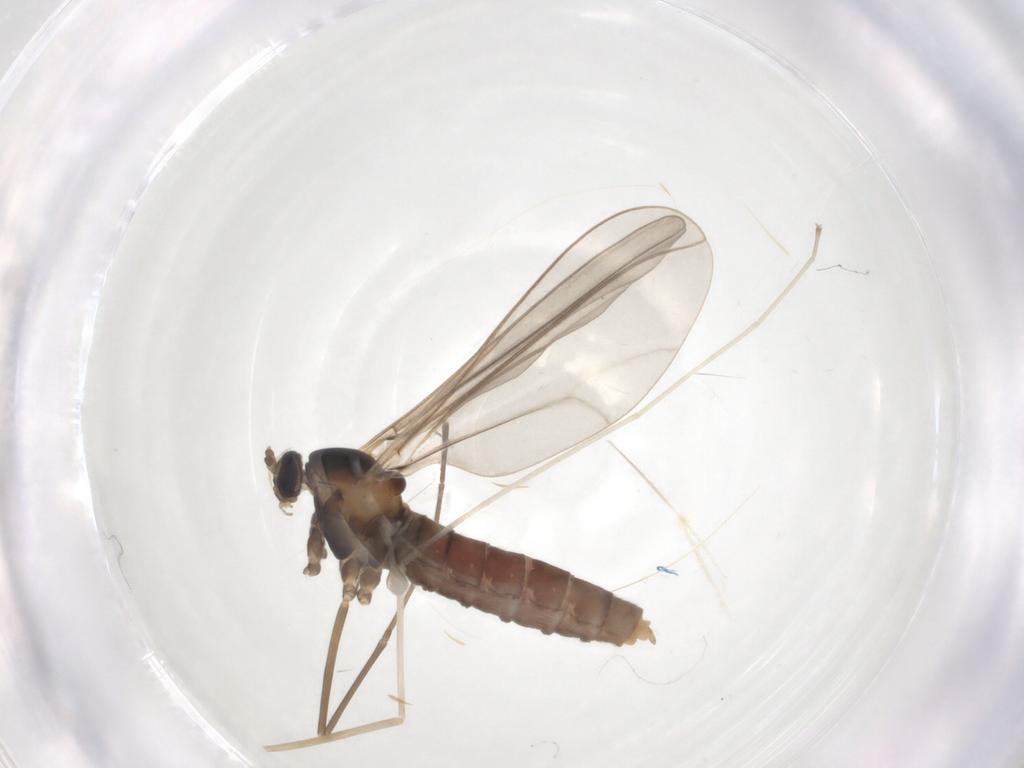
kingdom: Animalia
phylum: Arthropoda
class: Insecta
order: Diptera
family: Cecidomyiidae
